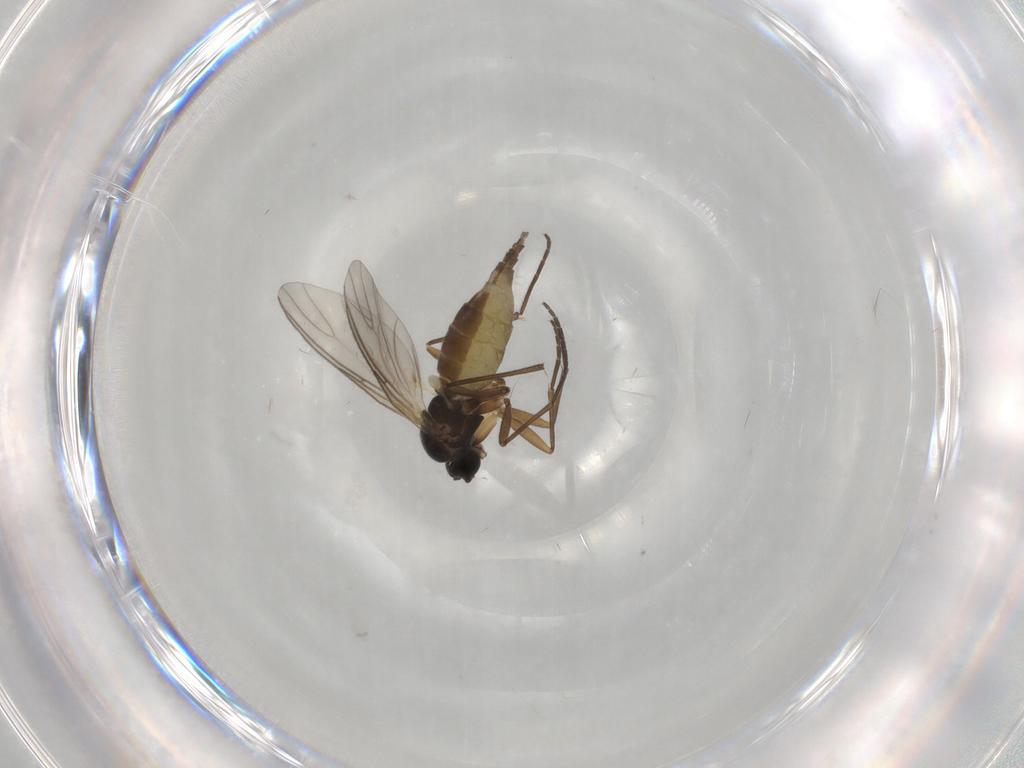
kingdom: Animalia
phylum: Arthropoda
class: Insecta
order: Diptera
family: Sciaridae
